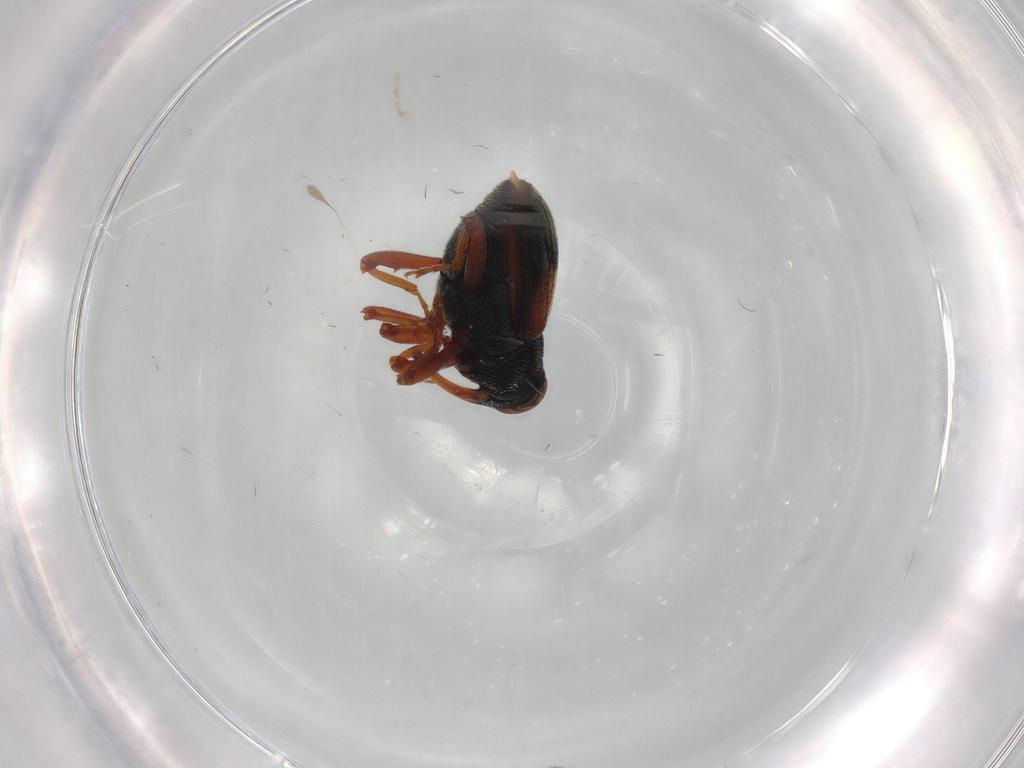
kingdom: Animalia
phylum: Arthropoda
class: Insecta
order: Coleoptera
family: Curculionidae
